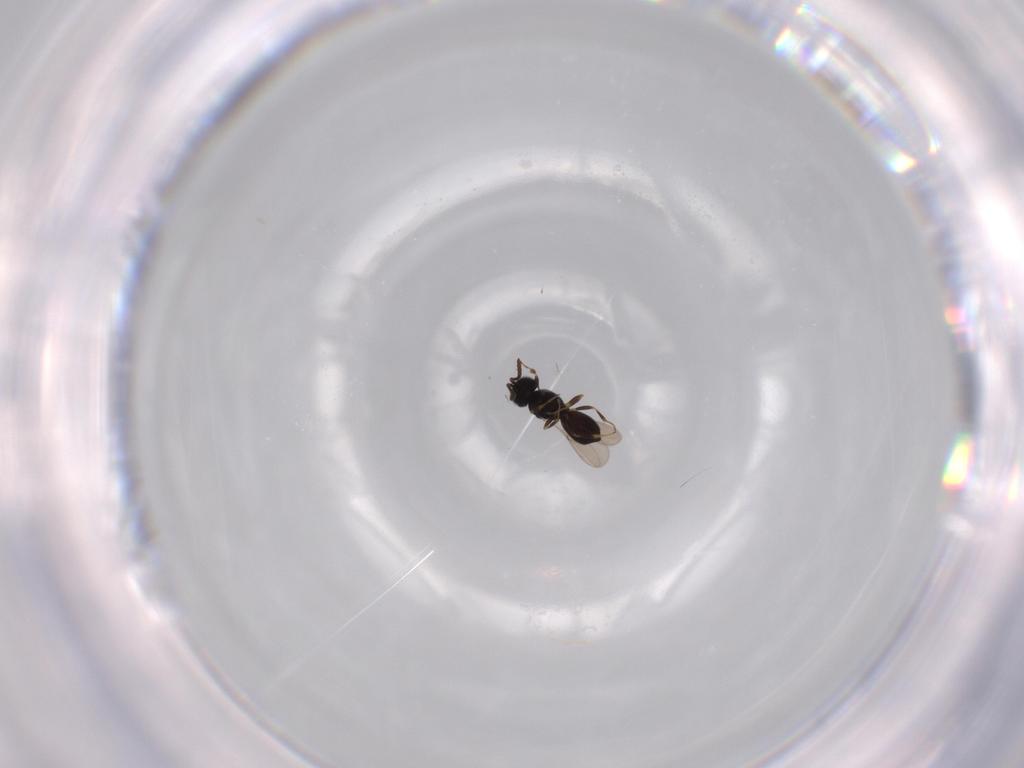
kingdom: Animalia
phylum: Arthropoda
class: Insecta
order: Hymenoptera
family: Scelionidae
